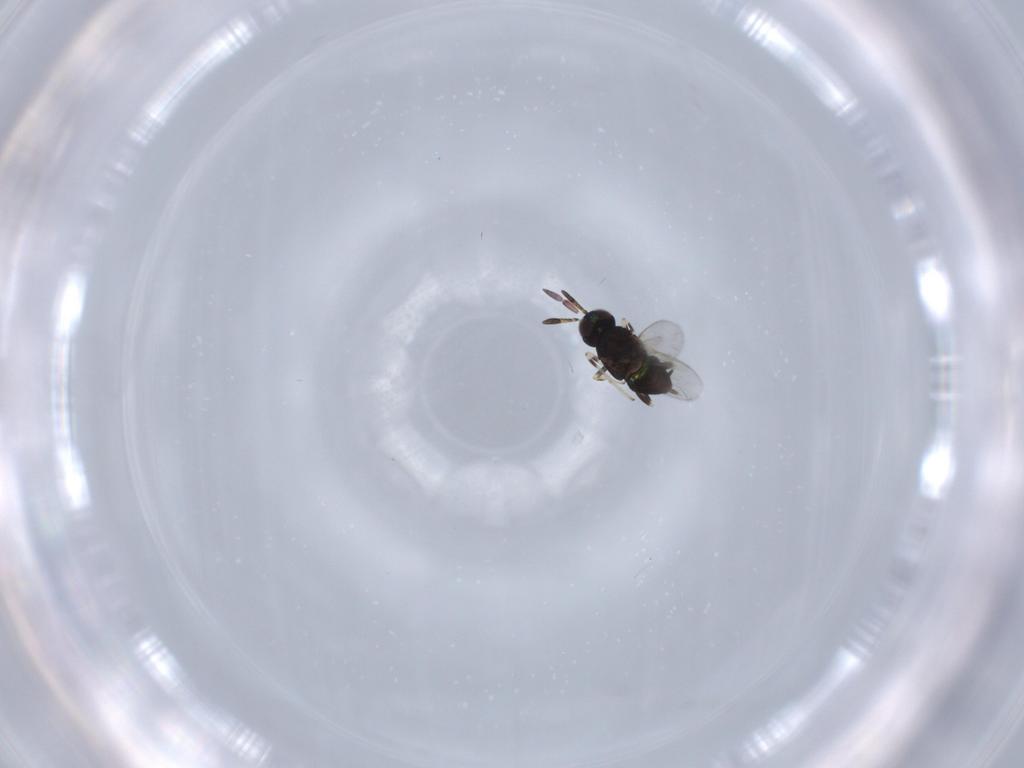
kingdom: Animalia
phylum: Arthropoda
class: Insecta
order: Hymenoptera
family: Encyrtidae
